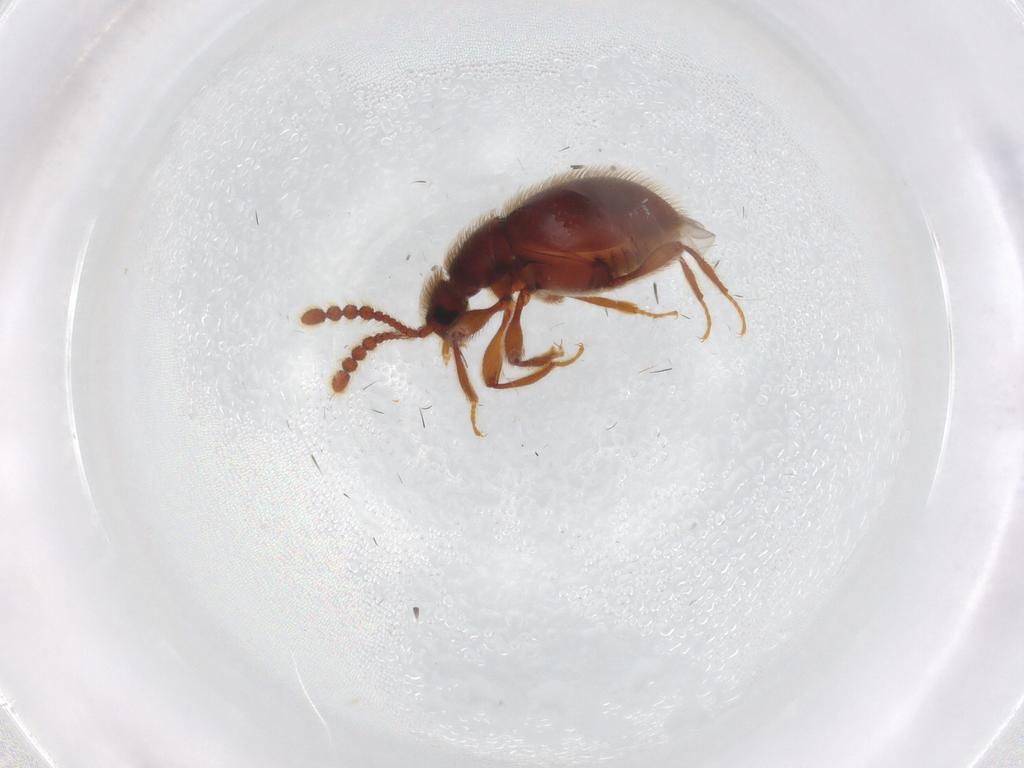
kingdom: Animalia
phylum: Arthropoda
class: Insecta
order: Coleoptera
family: Staphylinidae
